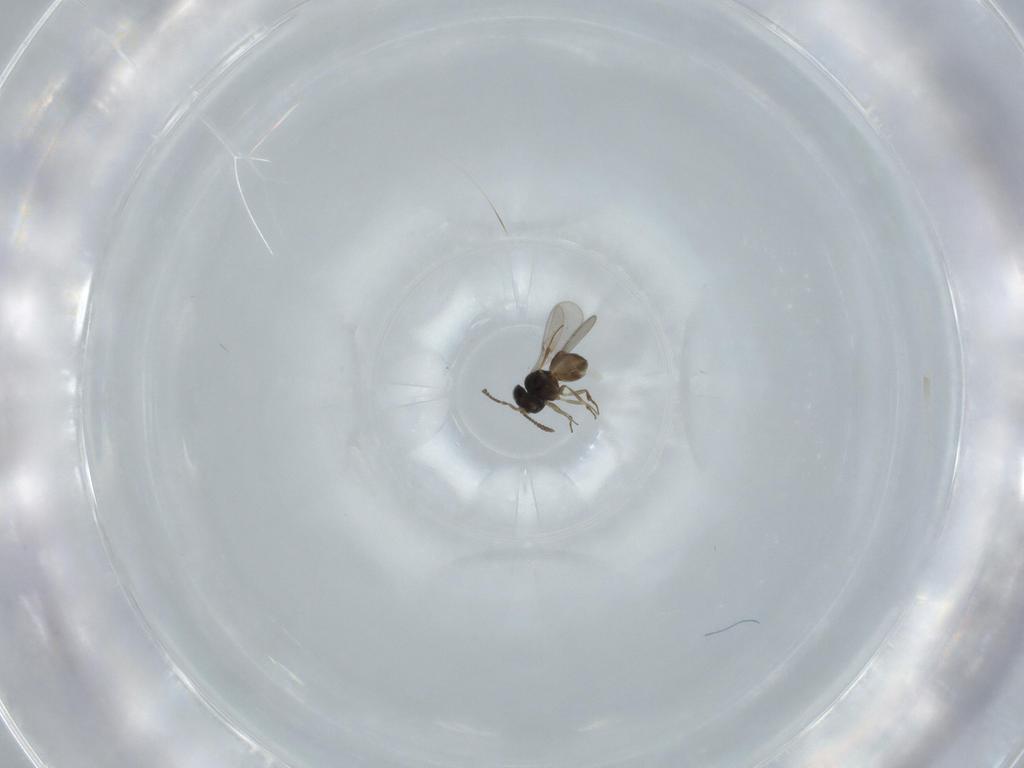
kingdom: Animalia
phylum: Arthropoda
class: Insecta
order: Hymenoptera
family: Scelionidae
